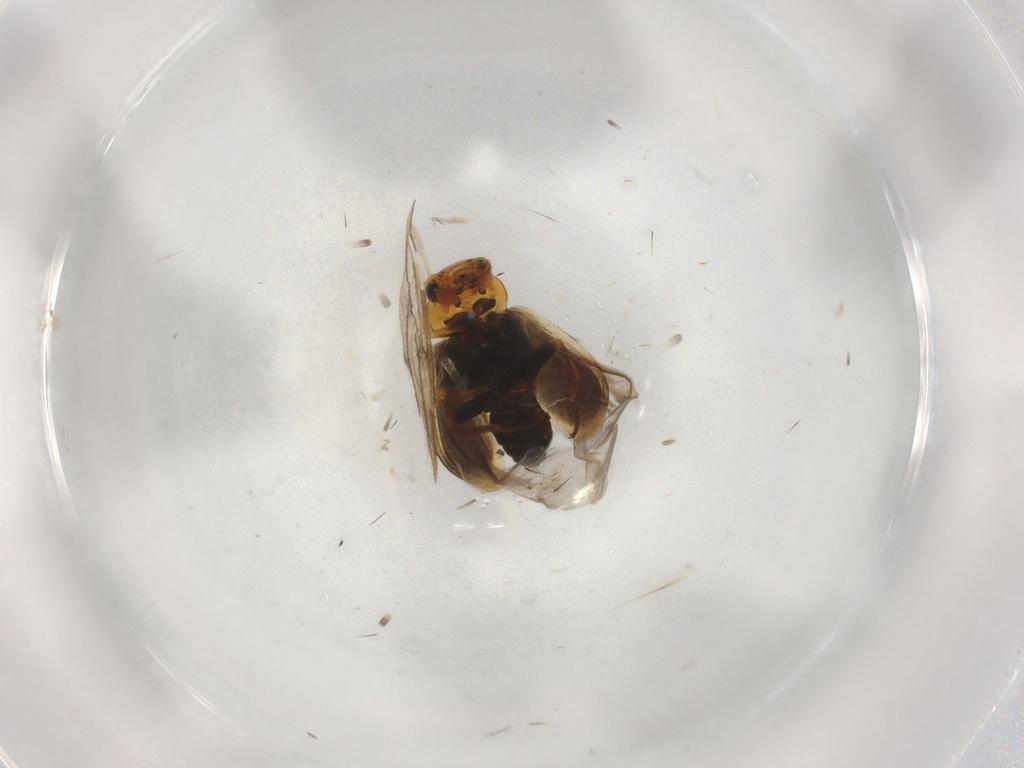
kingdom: Animalia
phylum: Arthropoda
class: Insecta
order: Coleoptera
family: Melyridae
